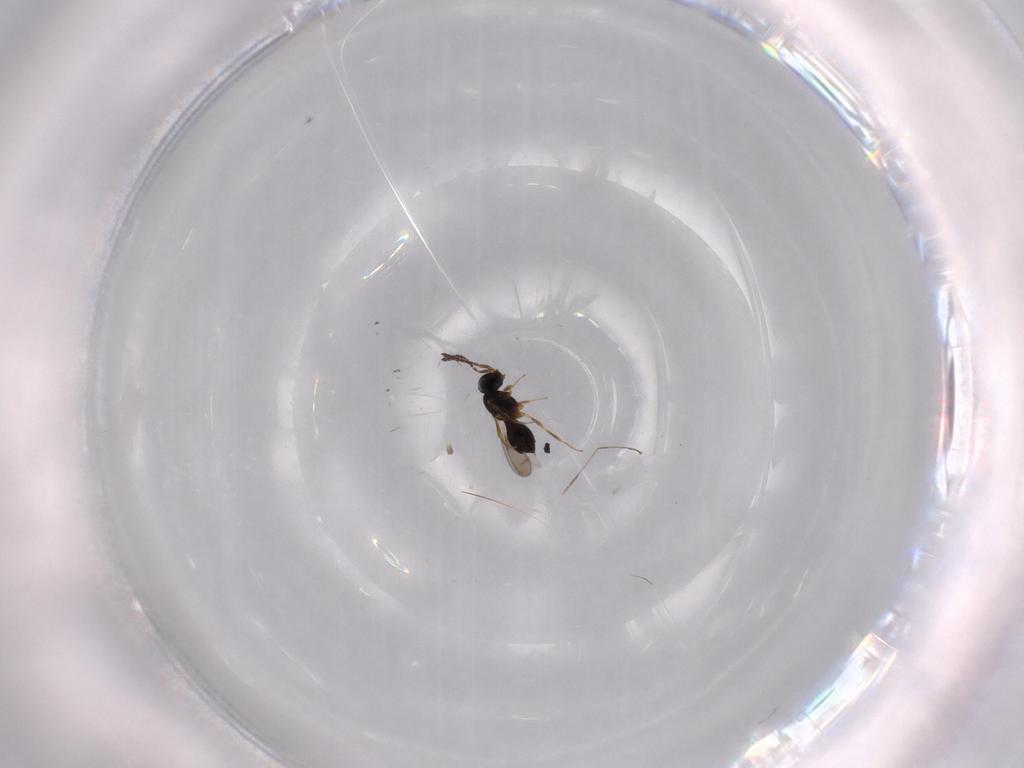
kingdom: Animalia
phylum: Arthropoda
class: Insecta
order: Hymenoptera
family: Scelionidae
